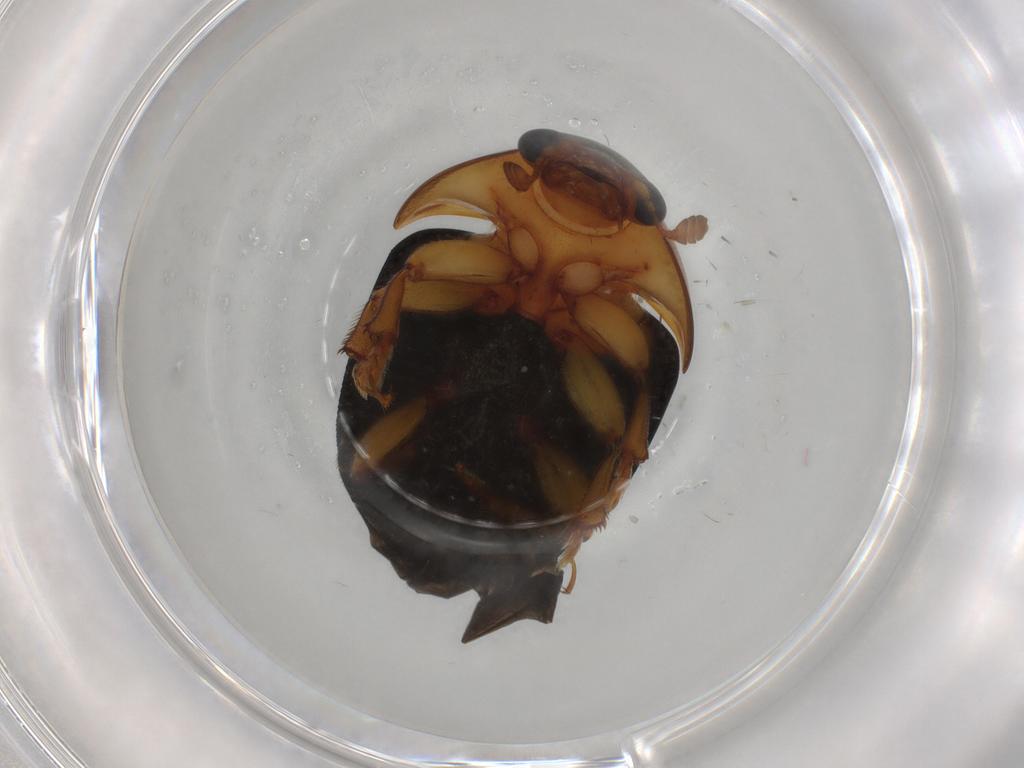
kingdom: Animalia
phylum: Arthropoda
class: Insecta
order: Coleoptera
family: Nitidulidae
